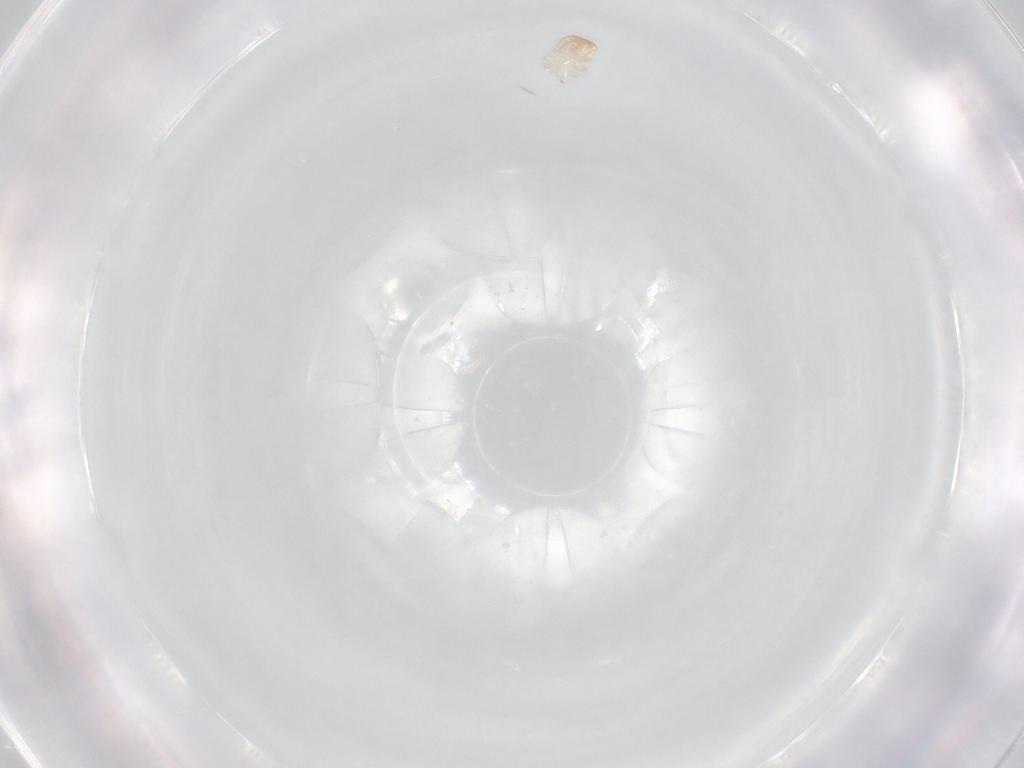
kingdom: Animalia
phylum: Arthropoda
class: Arachnida
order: Mesostigmata
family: Zerconidae
